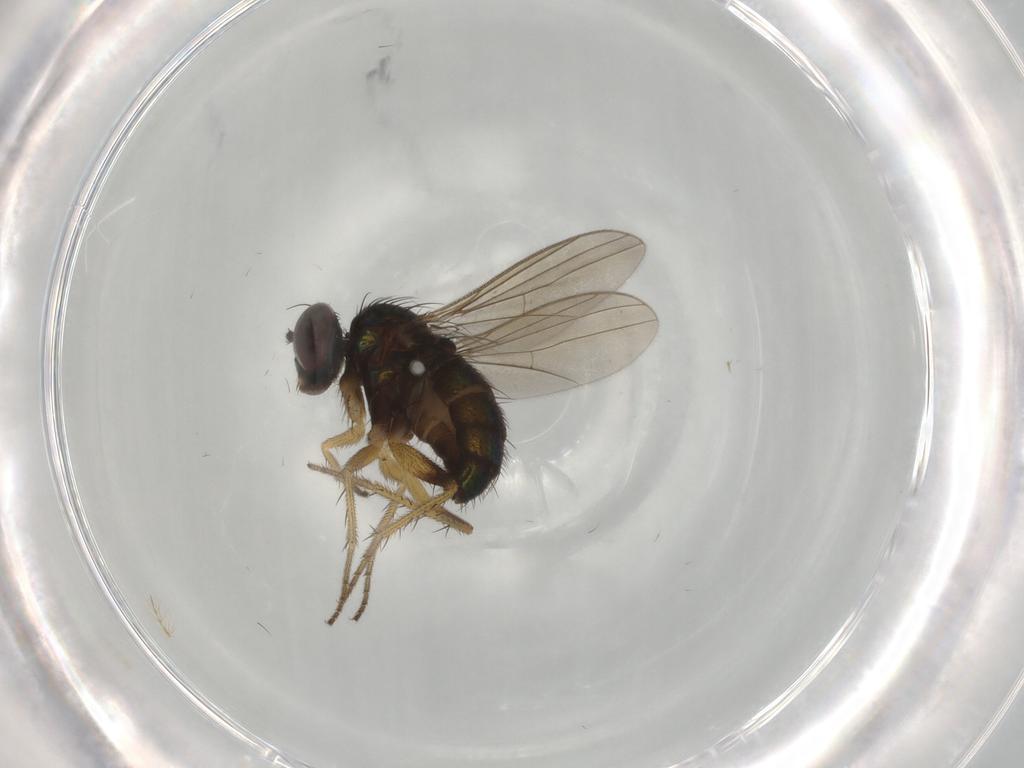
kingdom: Animalia
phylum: Arthropoda
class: Insecta
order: Diptera
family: Dolichopodidae
